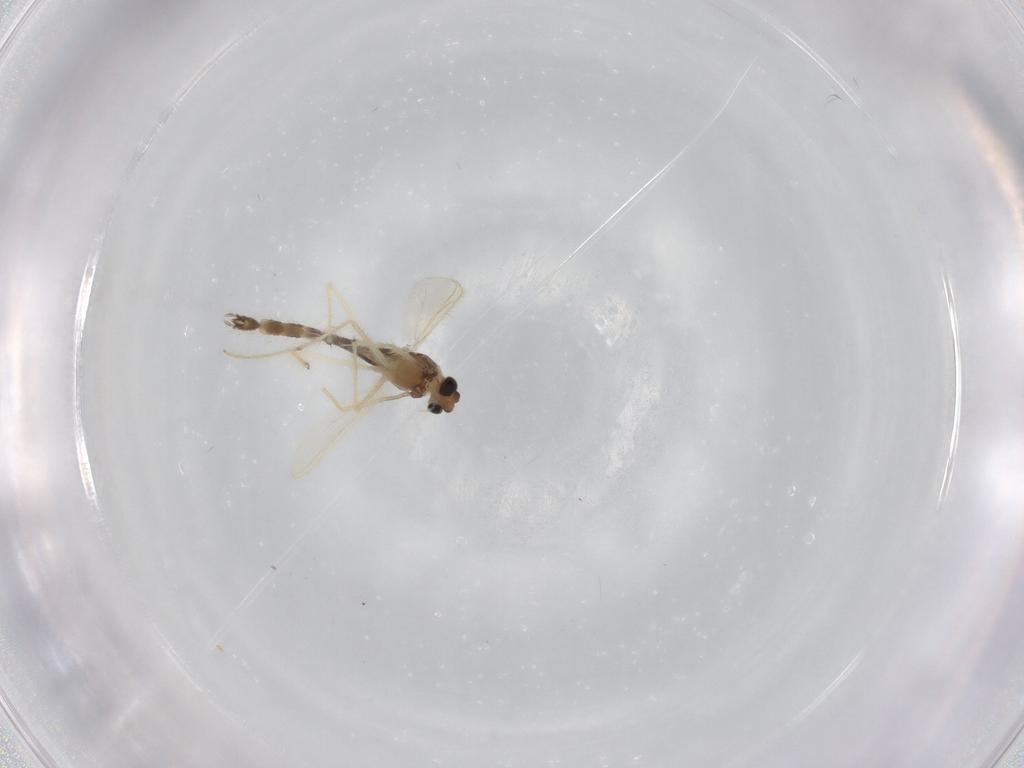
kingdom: Animalia
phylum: Arthropoda
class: Insecta
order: Diptera
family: Chironomidae
